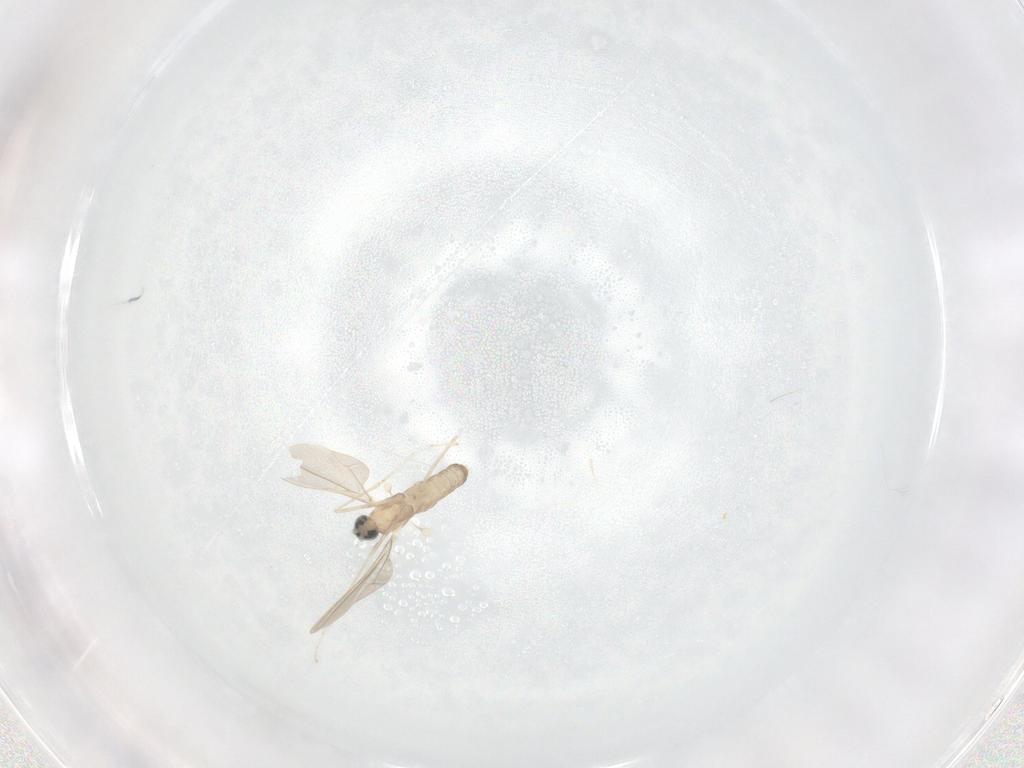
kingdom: Animalia
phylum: Arthropoda
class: Insecta
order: Diptera
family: Cecidomyiidae
